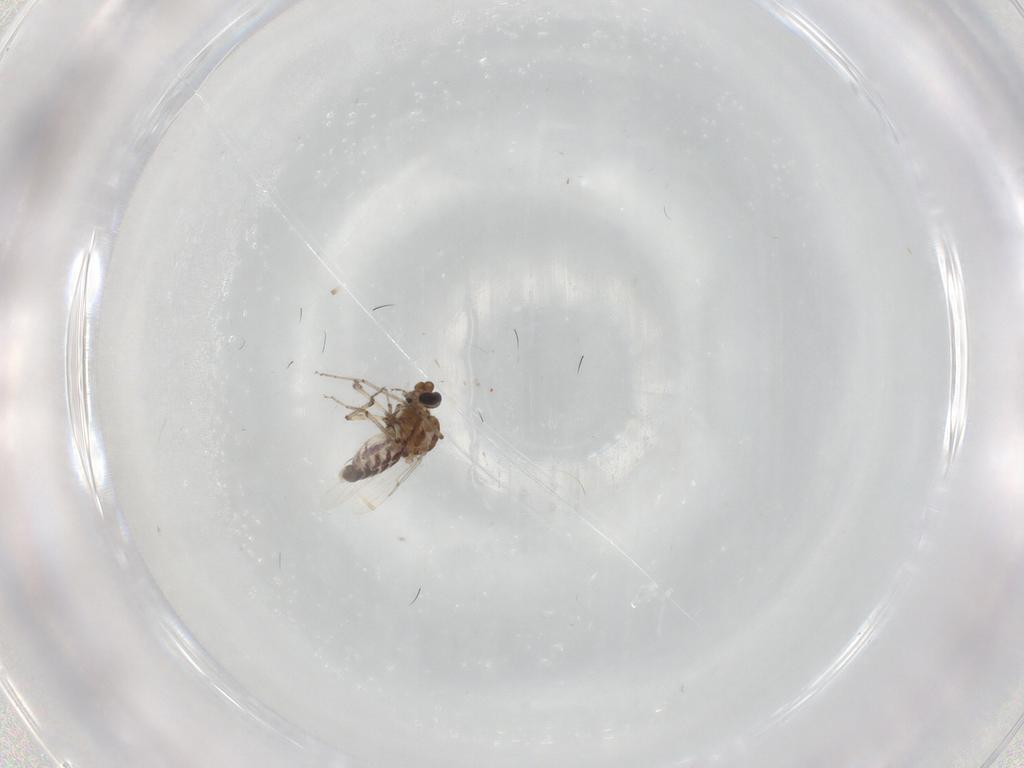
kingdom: Animalia
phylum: Arthropoda
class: Insecta
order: Diptera
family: Ceratopogonidae
